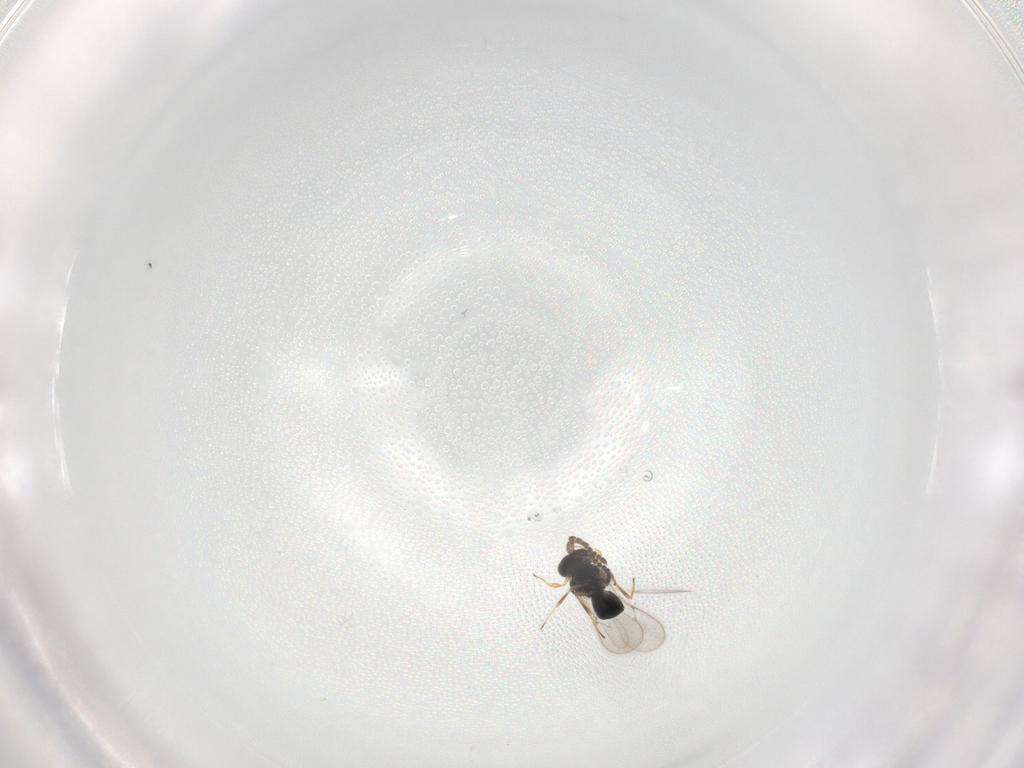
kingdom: Animalia
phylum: Arthropoda
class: Insecta
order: Hymenoptera
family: Scelionidae
